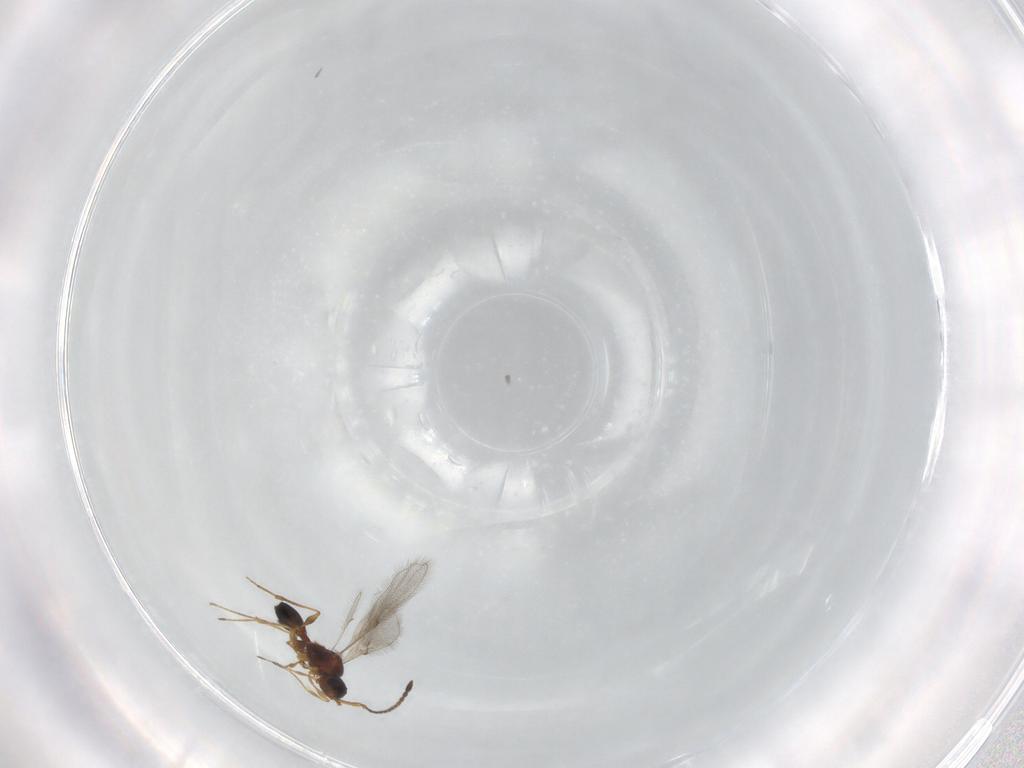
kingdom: Animalia
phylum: Arthropoda
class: Insecta
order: Hymenoptera
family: Diapriidae
